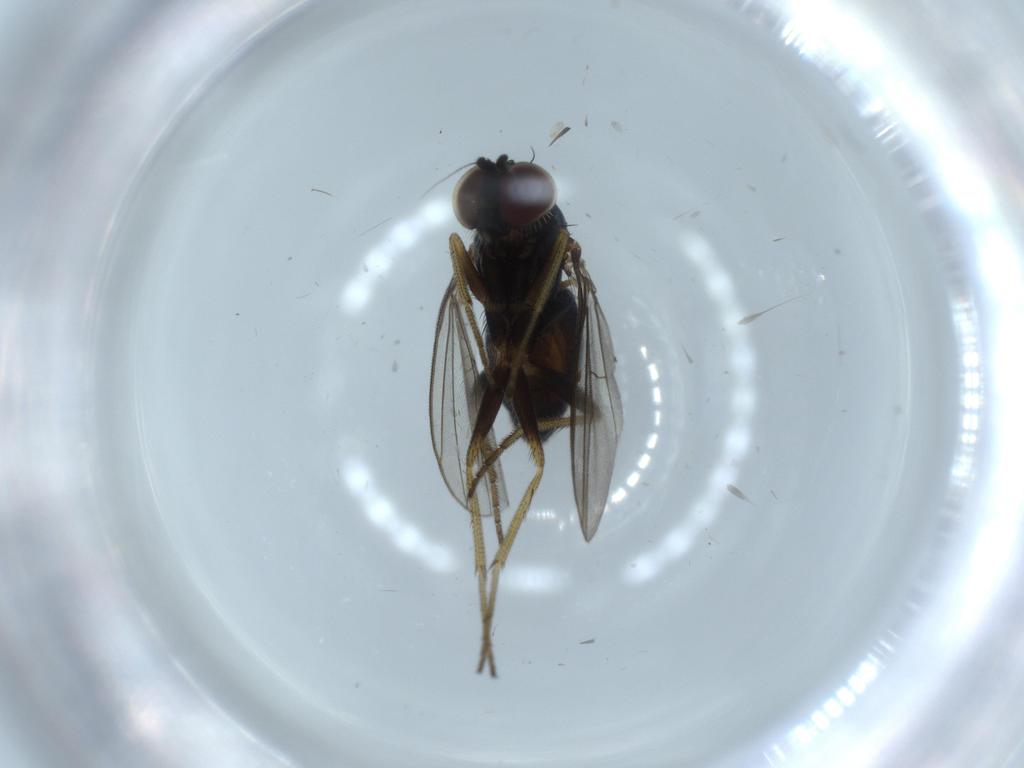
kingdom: Animalia
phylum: Arthropoda
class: Insecta
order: Diptera
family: Dolichopodidae
